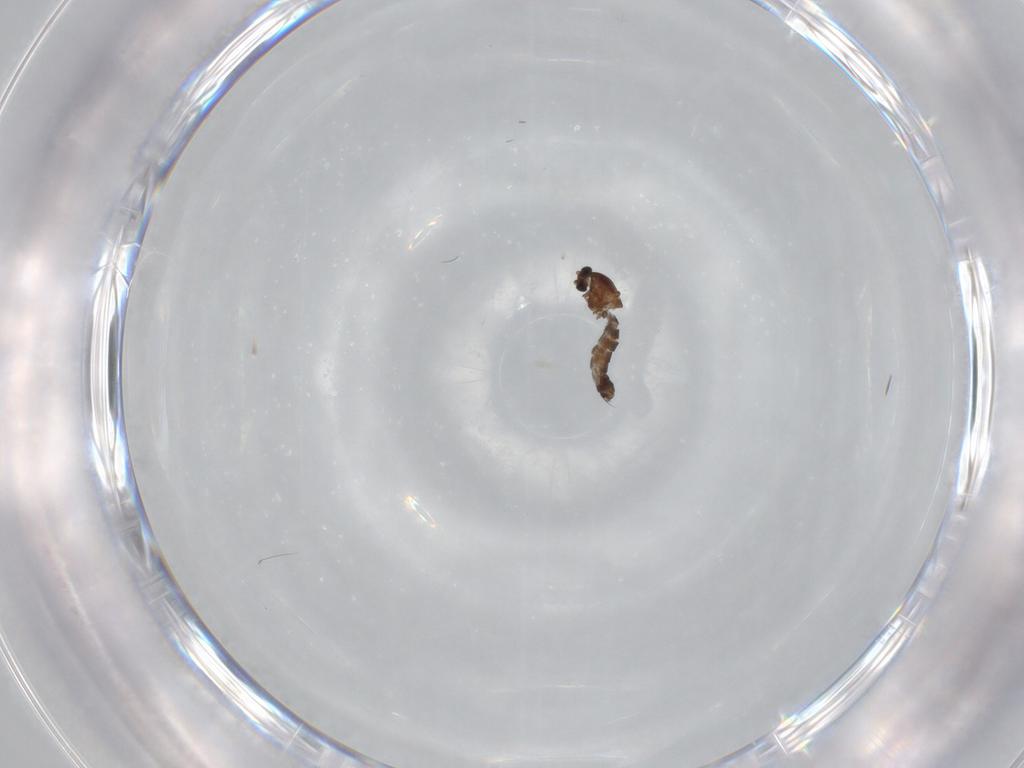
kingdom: Animalia
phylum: Arthropoda
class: Insecta
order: Diptera
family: Chironomidae
